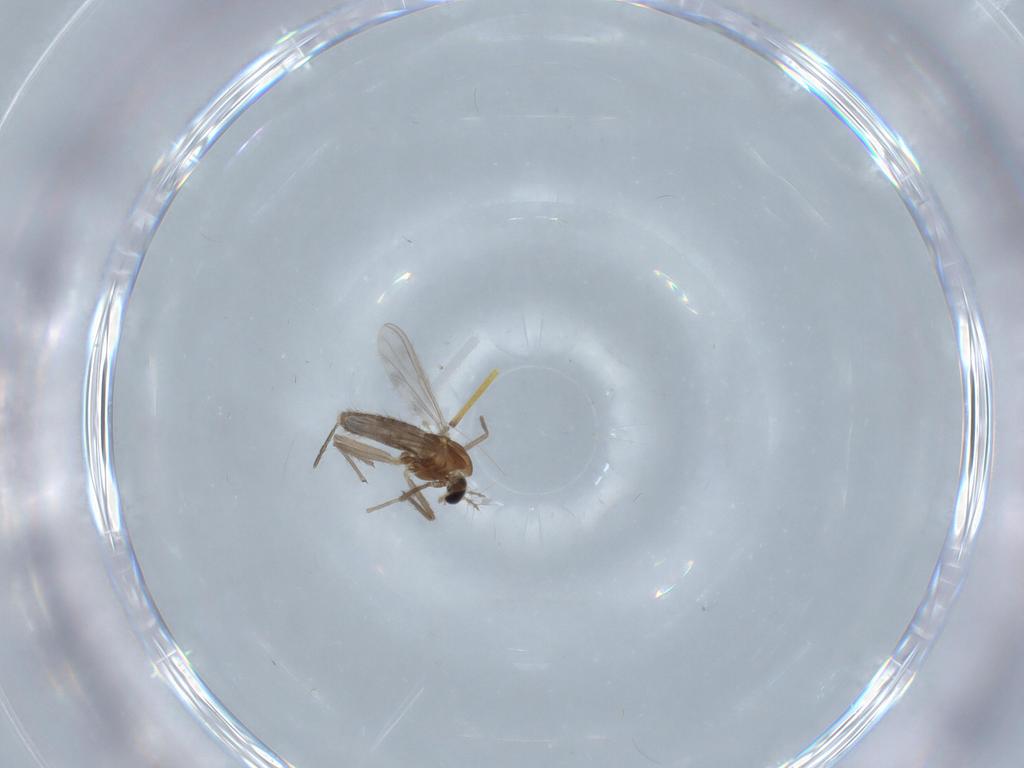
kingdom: Animalia
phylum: Arthropoda
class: Insecta
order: Diptera
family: Chironomidae
